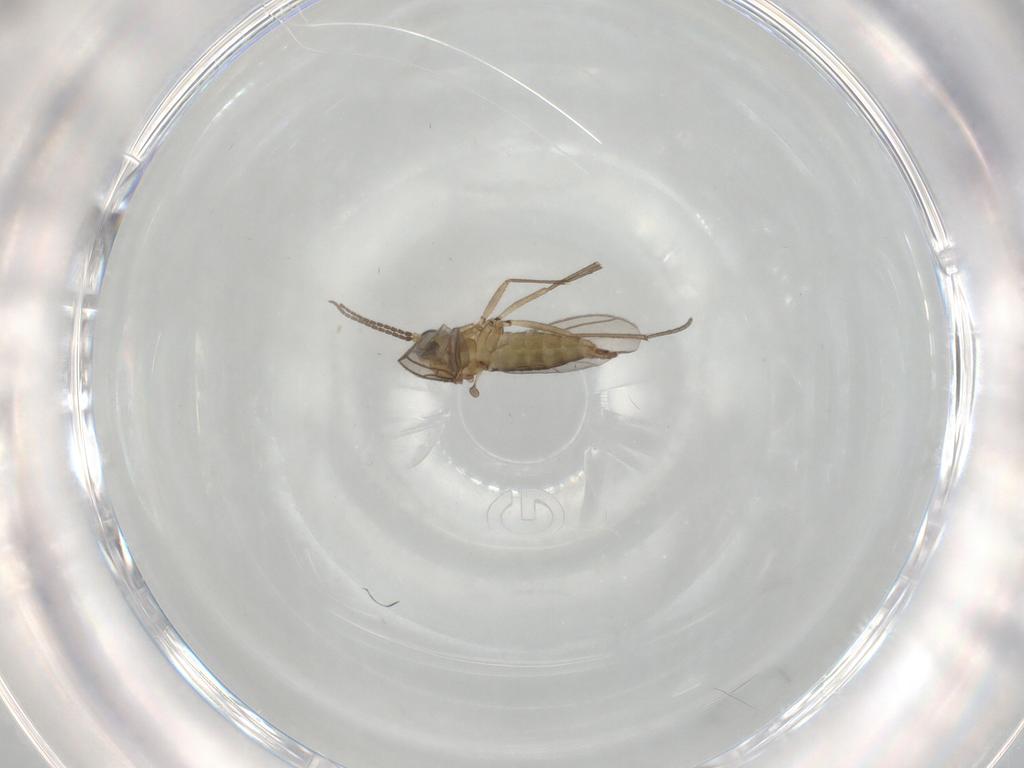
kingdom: Animalia
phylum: Arthropoda
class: Insecta
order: Diptera
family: Sciaridae
